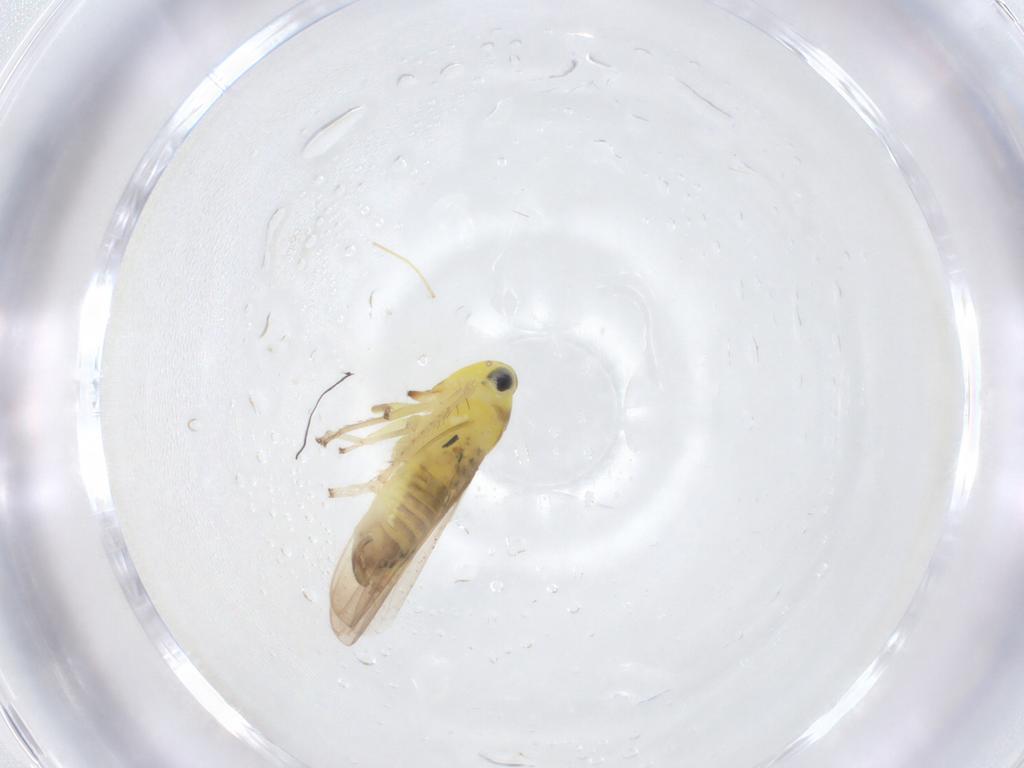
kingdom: Animalia
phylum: Arthropoda
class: Insecta
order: Hemiptera
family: Cicadellidae
